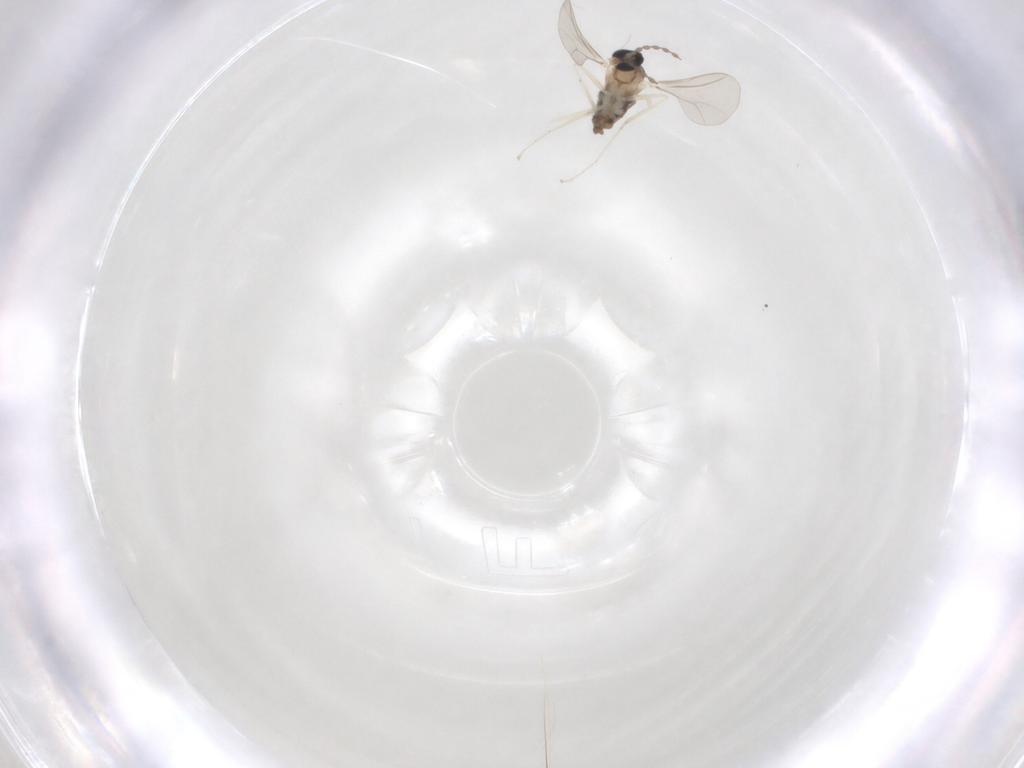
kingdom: Animalia
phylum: Arthropoda
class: Insecta
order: Diptera
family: Cecidomyiidae
